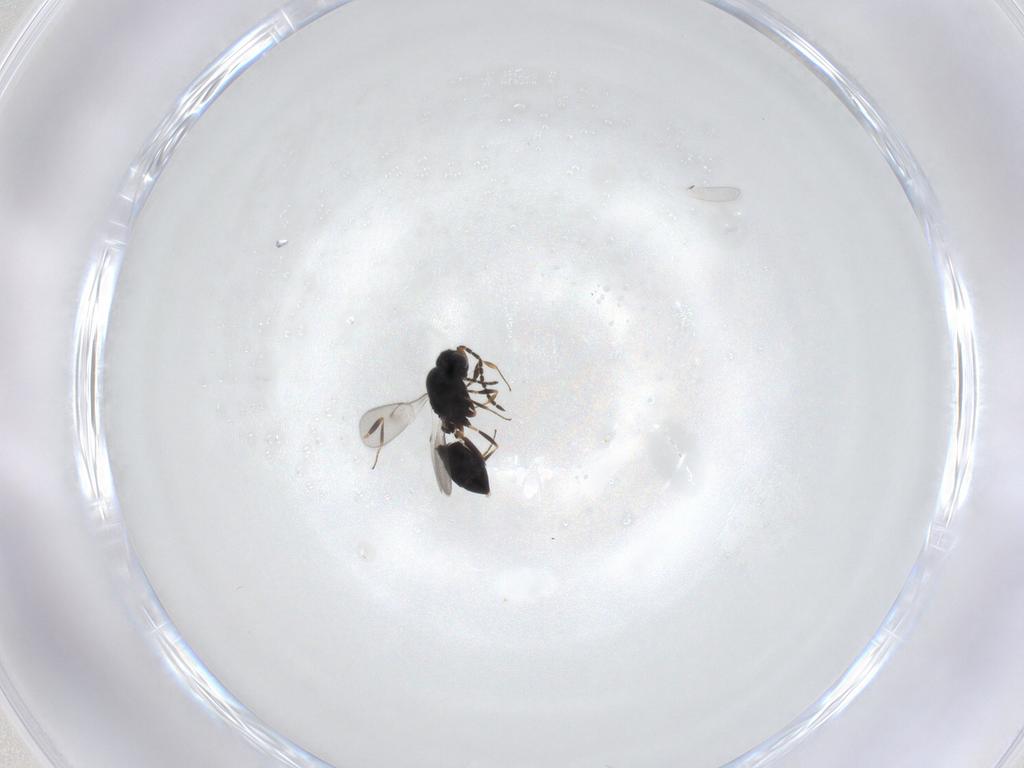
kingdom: Animalia
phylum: Arthropoda
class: Insecta
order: Hymenoptera
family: Scelionidae
